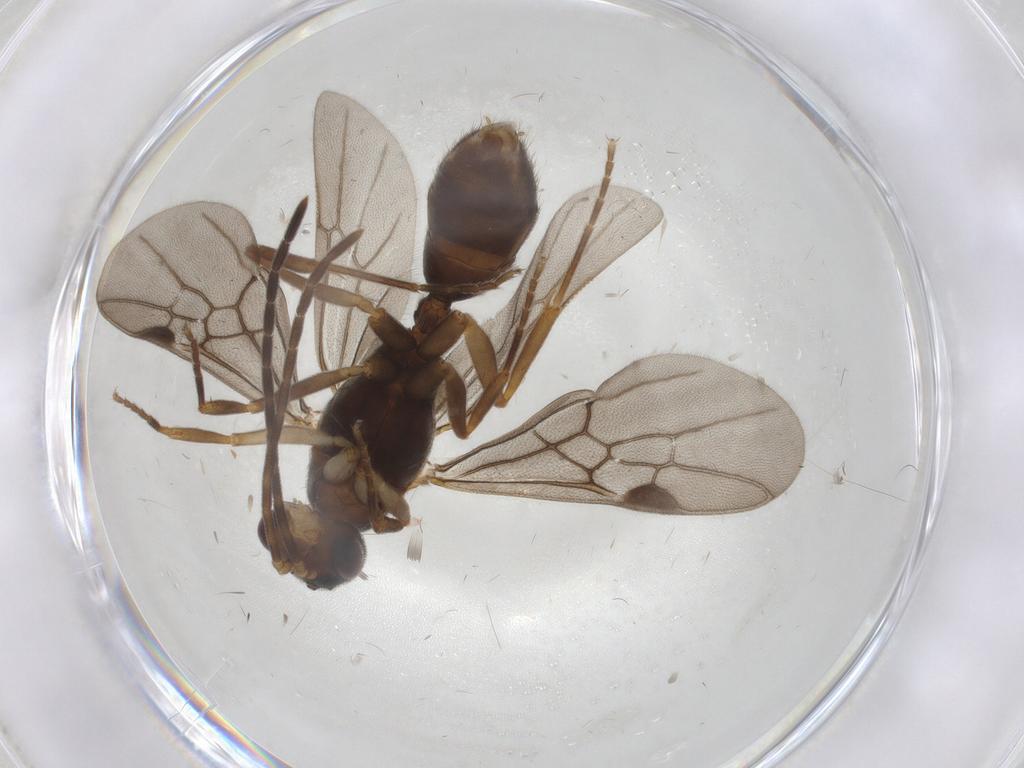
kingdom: Animalia
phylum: Arthropoda
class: Insecta
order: Hymenoptera
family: Formicidae
